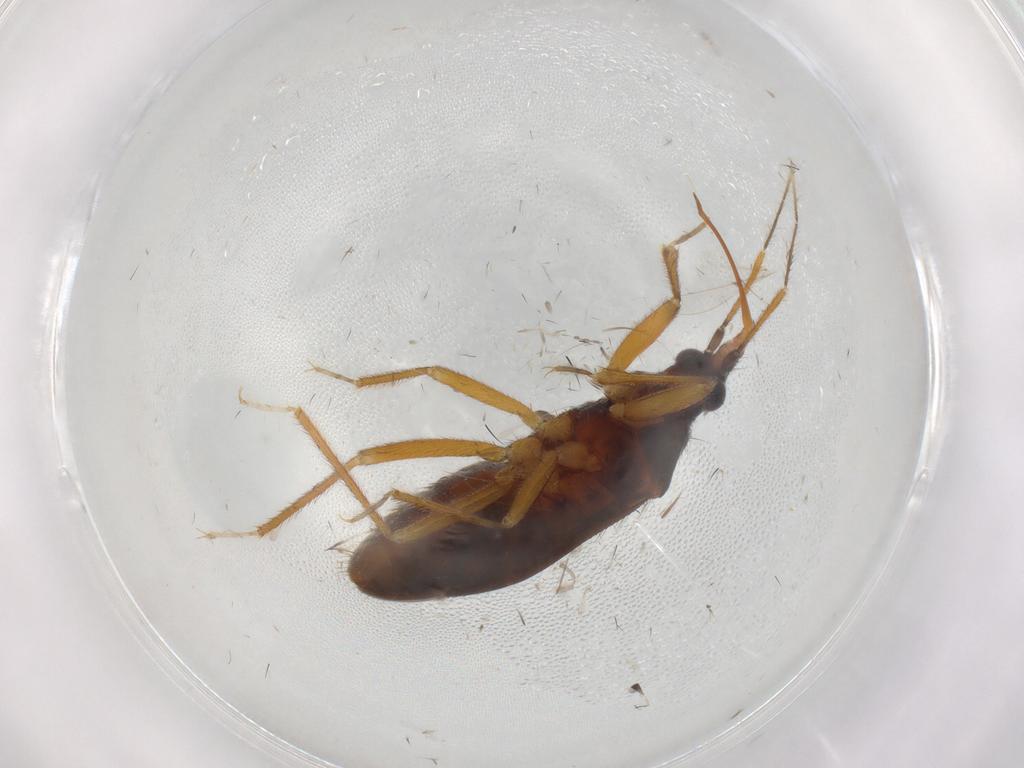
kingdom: Animalia
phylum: Arthropoda
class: Insecta
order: Hemiptera
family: Anthocoridae
